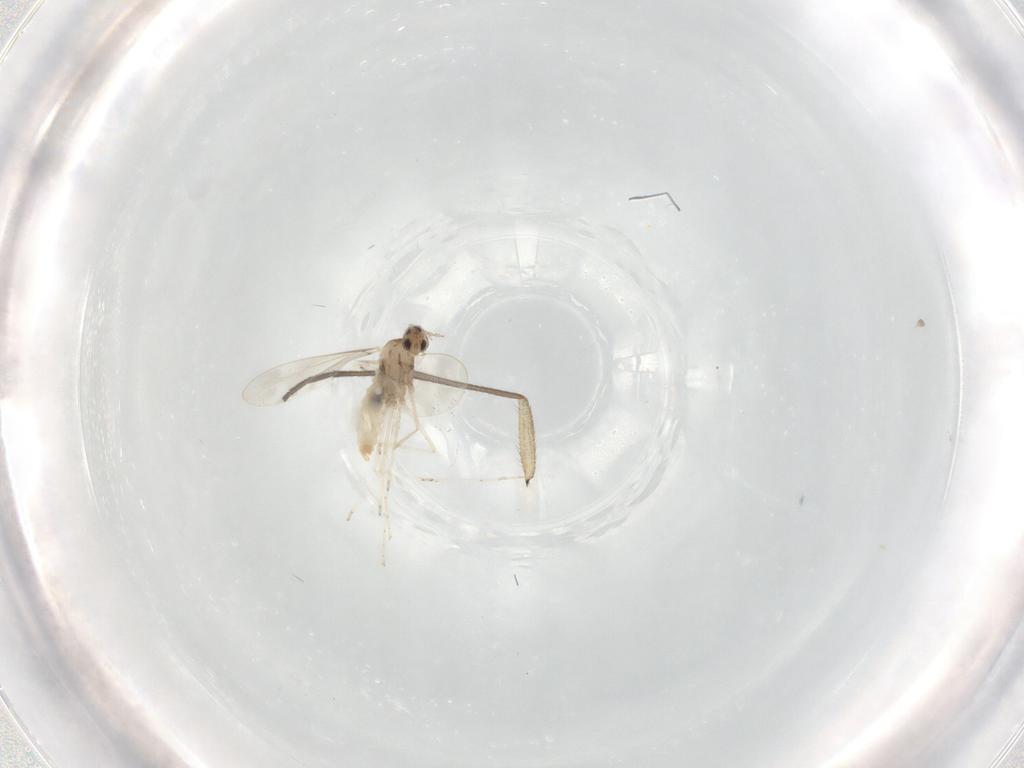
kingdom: Animalia
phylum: Arthropoda
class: Insecta
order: Diptera
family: Cecidomyiidae
